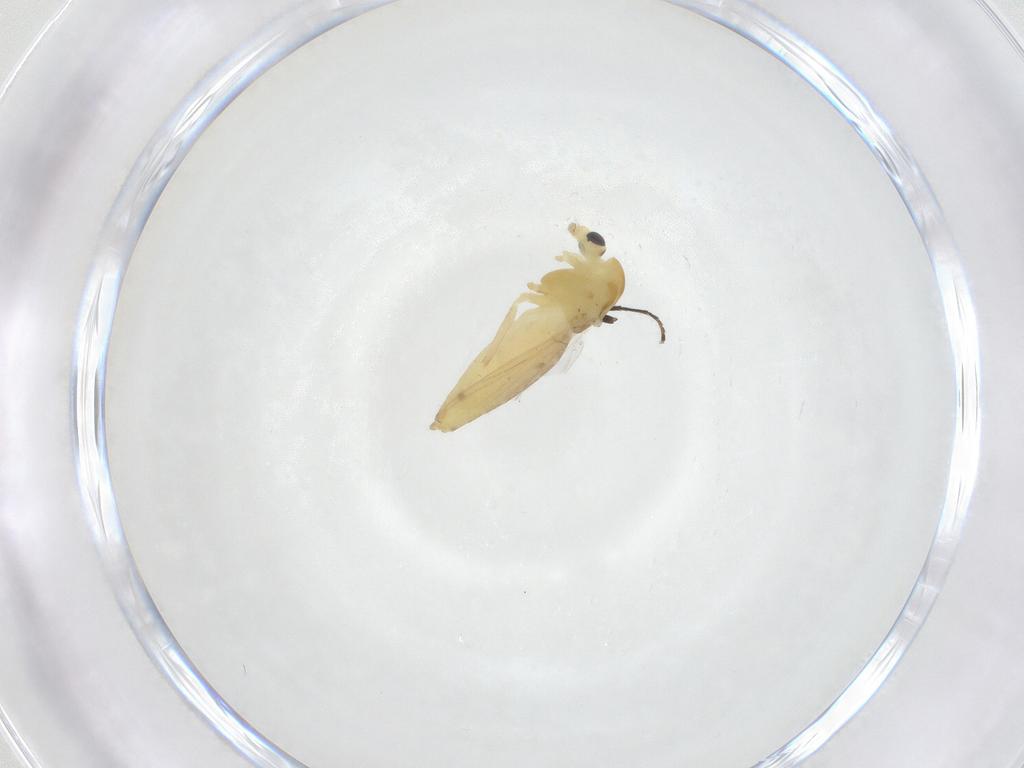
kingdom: Animalia
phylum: Arthropoda
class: Insecta
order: Diptera
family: Chironomidae
